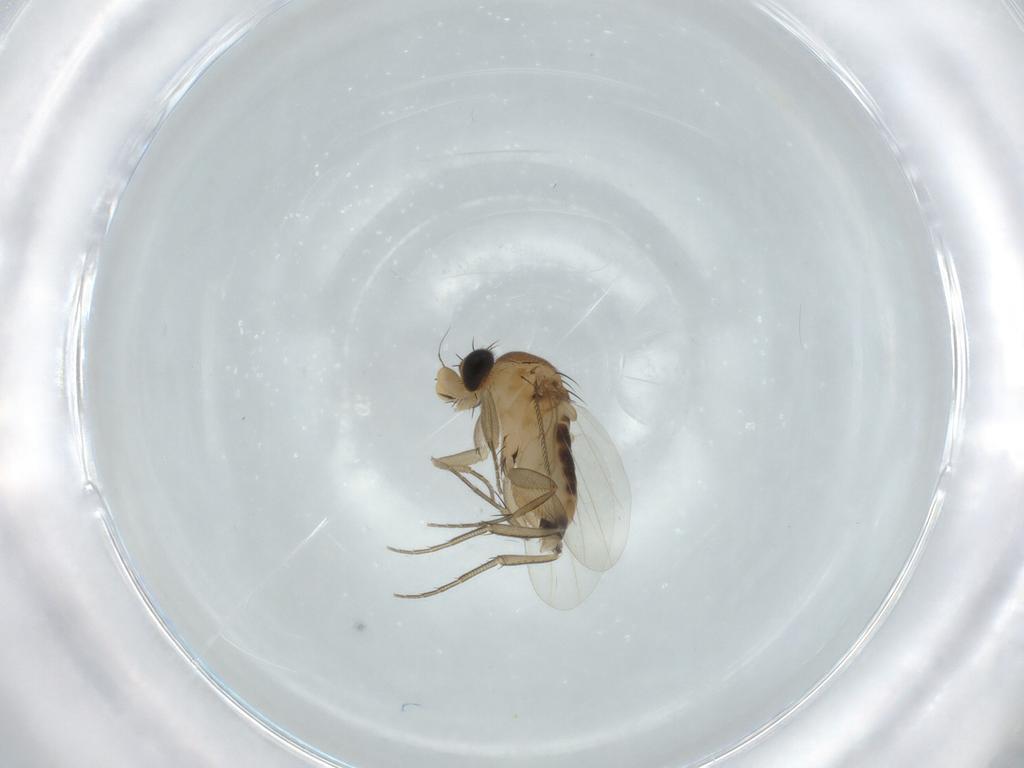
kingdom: Animalia
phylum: Arthropoda
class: Insecta
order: Diptera
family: Phoridae
